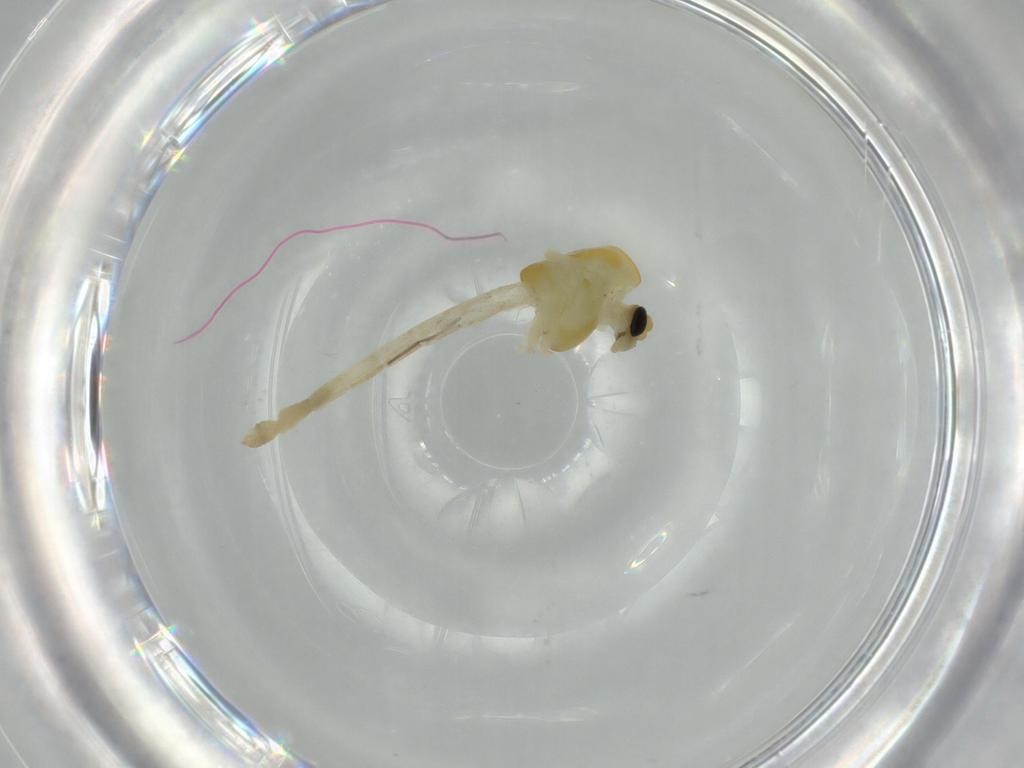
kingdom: Animalia
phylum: Arthropoda
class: Insecta
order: Diptera
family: Chironomidae
